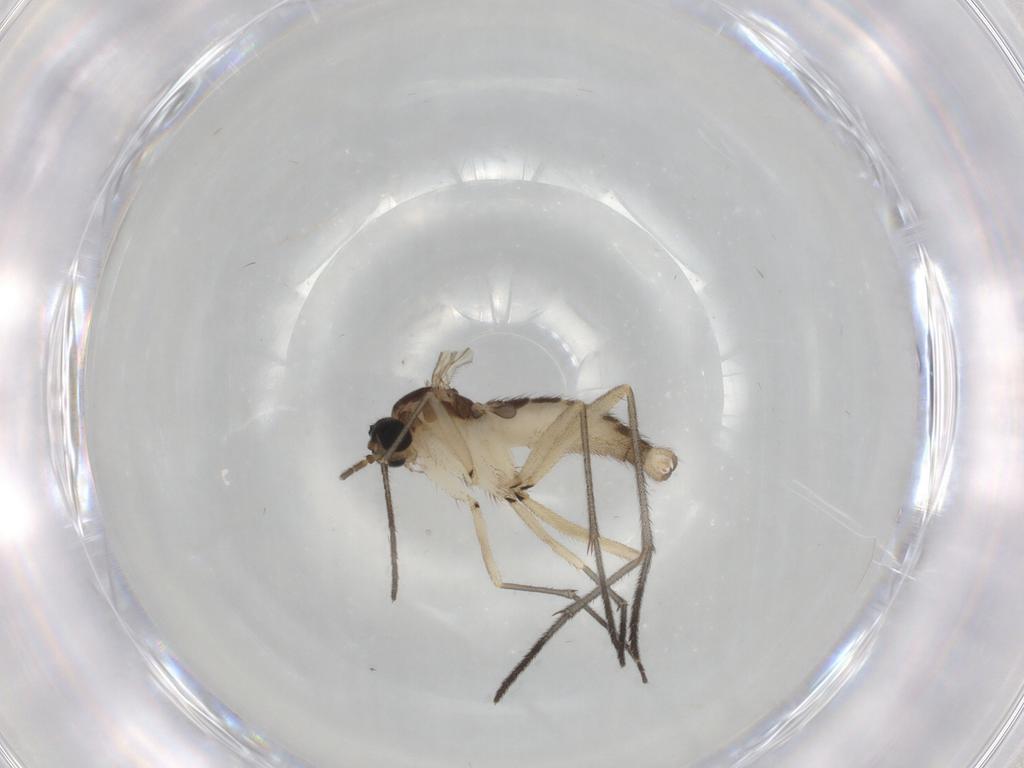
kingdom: Animalia
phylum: Arthropoda
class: Insecta
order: Diptera
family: Sciaridae
